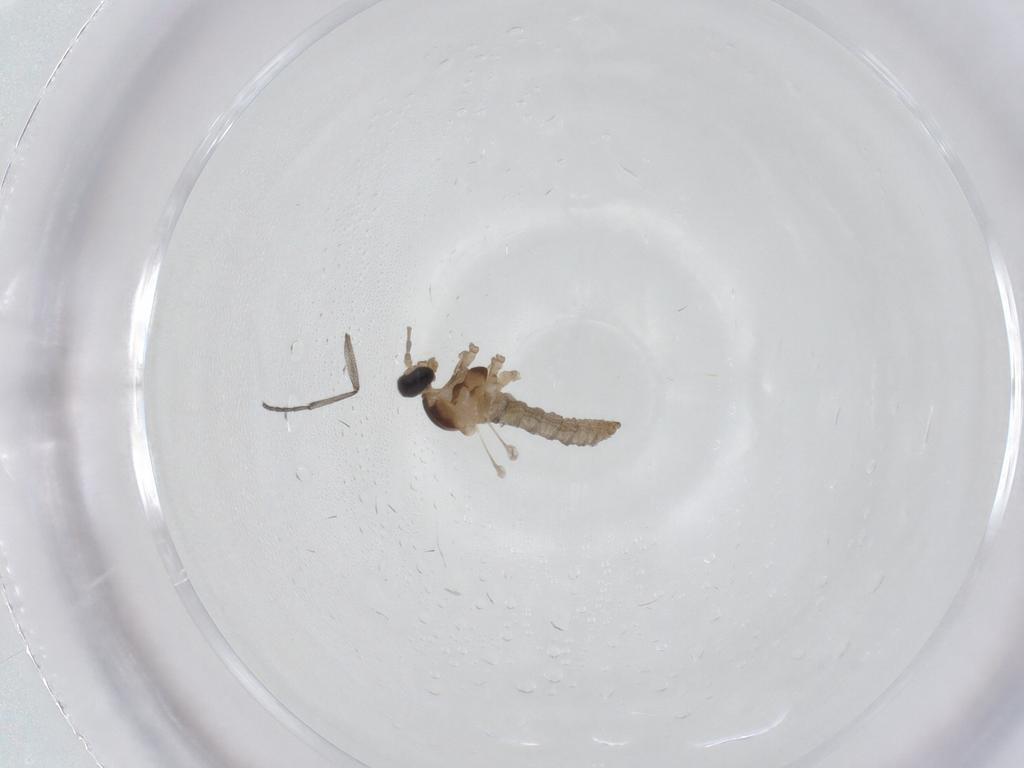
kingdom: Animalia
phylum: Arthropoda
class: Insecta
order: Diptera
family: Cecidomyiidae
